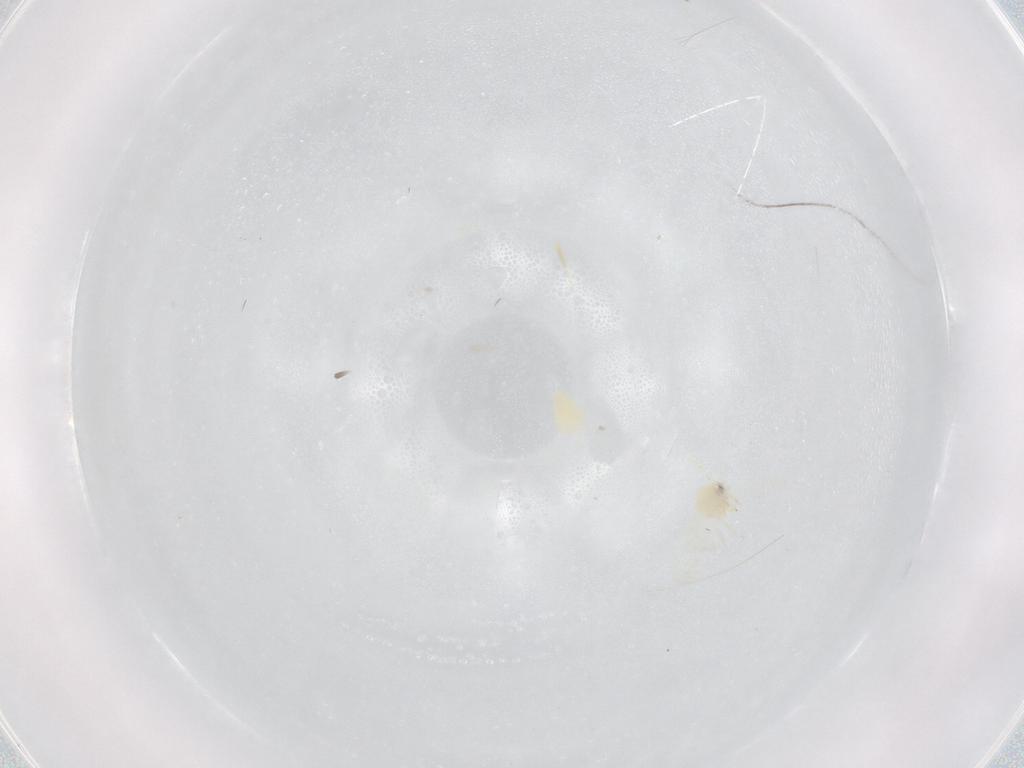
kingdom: Animalia
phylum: Arthropoda
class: Insecta
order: Hemiptera
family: Aleyrodidae
